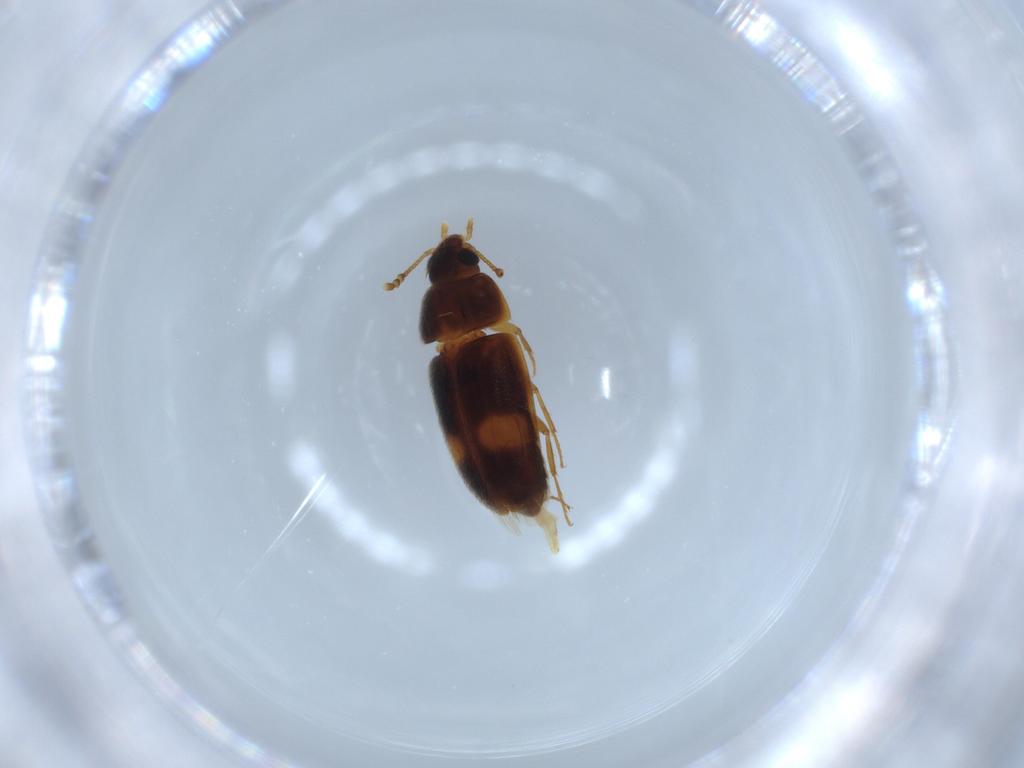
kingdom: Animalia
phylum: Arthropoda
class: Insecta
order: Coleoptera
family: Mycetophagidae
